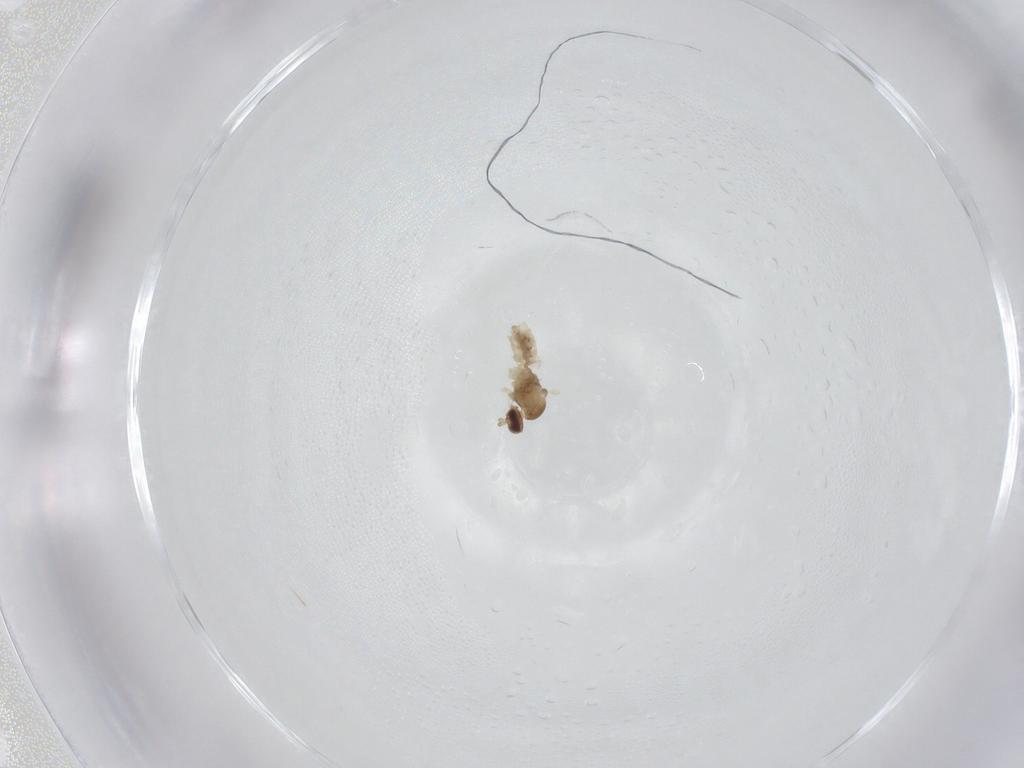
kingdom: Animalia
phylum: Arthropoda
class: Insecta
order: Diptera
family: Cecidomyiidae
